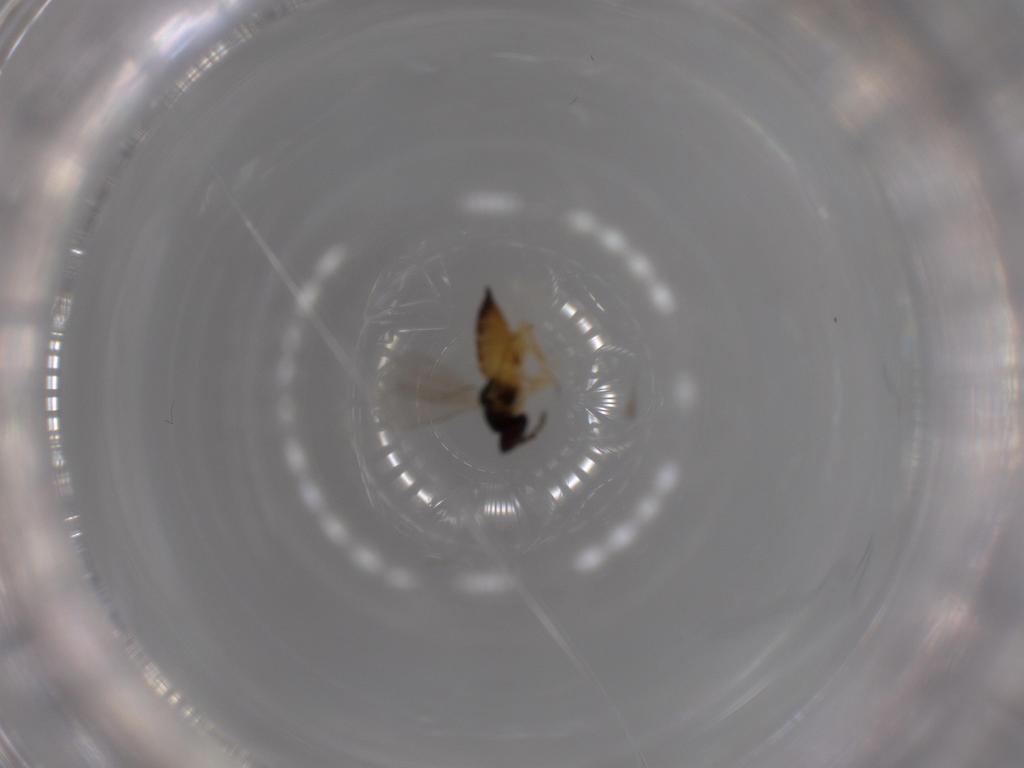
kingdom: Animalia
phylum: Arthropoda
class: Insecta
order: Hymenoptera
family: Eulophidae
